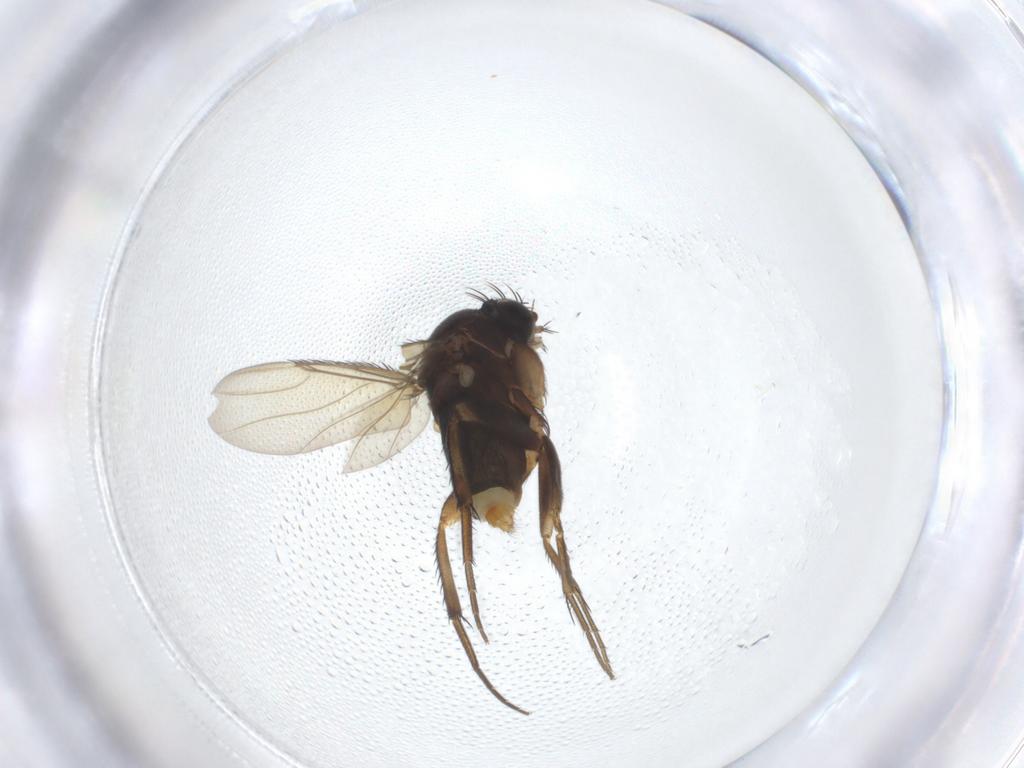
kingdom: Animalia
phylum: Arthropoda
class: Insecta
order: Diptera
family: Phoridae
